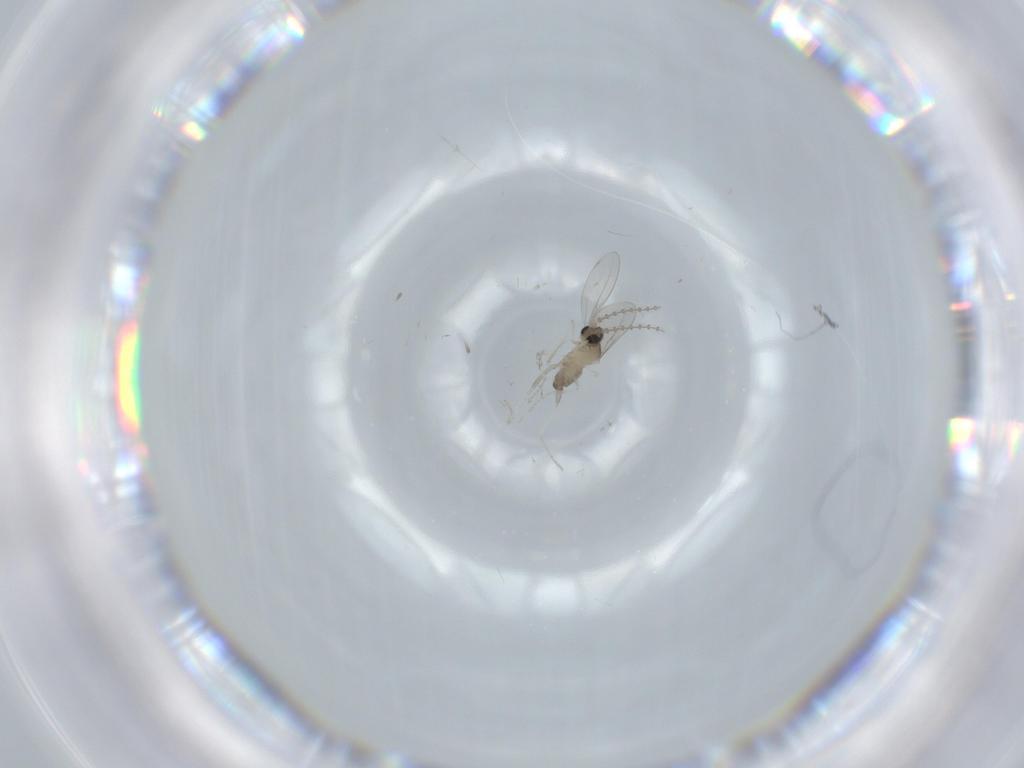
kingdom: Animalia
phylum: Arthropoda
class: Insecta
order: Diptera
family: Cecidomyiidae
